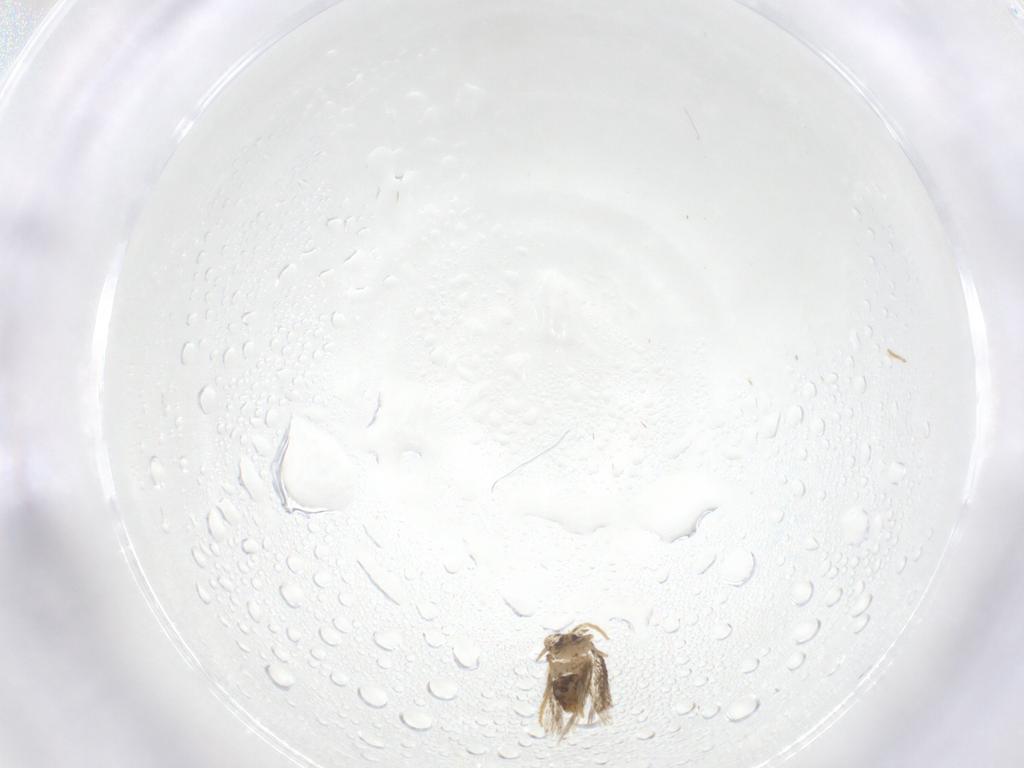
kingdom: Animalia
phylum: Arthropoda
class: Insecta
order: Lepidoptera
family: Nepticulidae
